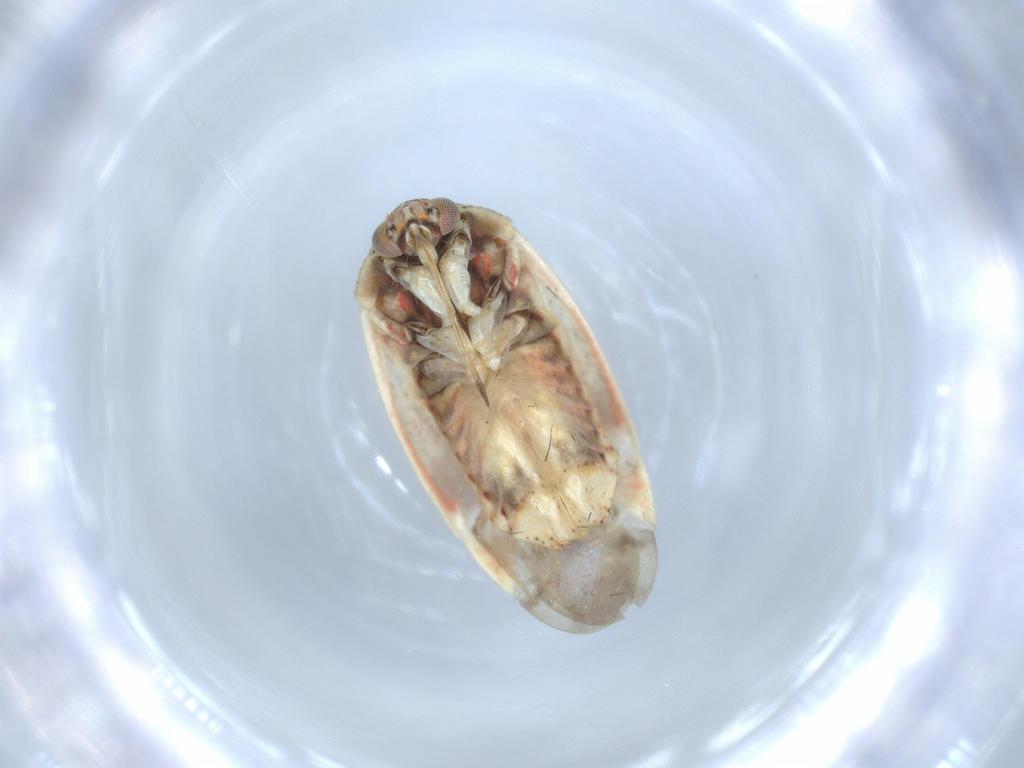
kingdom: Animalia
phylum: Arthropoda
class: Insecta
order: Hemiptera
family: Aphididae
